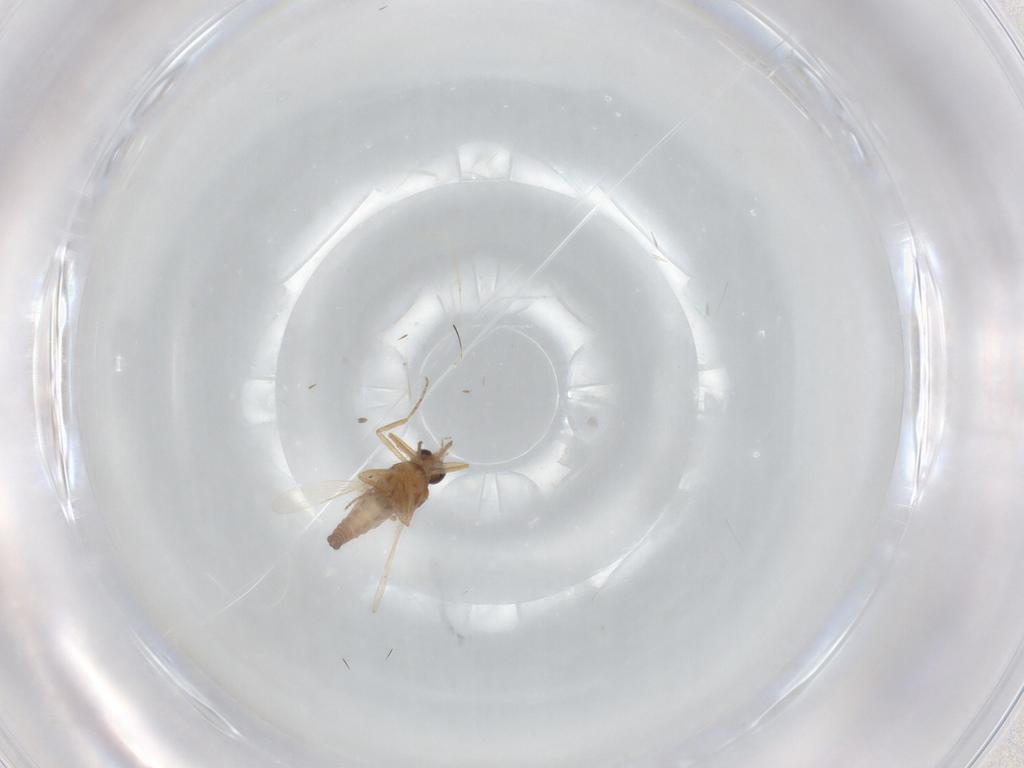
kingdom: Animalia
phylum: Arthropoda
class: Insecta
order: Diptera
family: Ceratopogonidae
